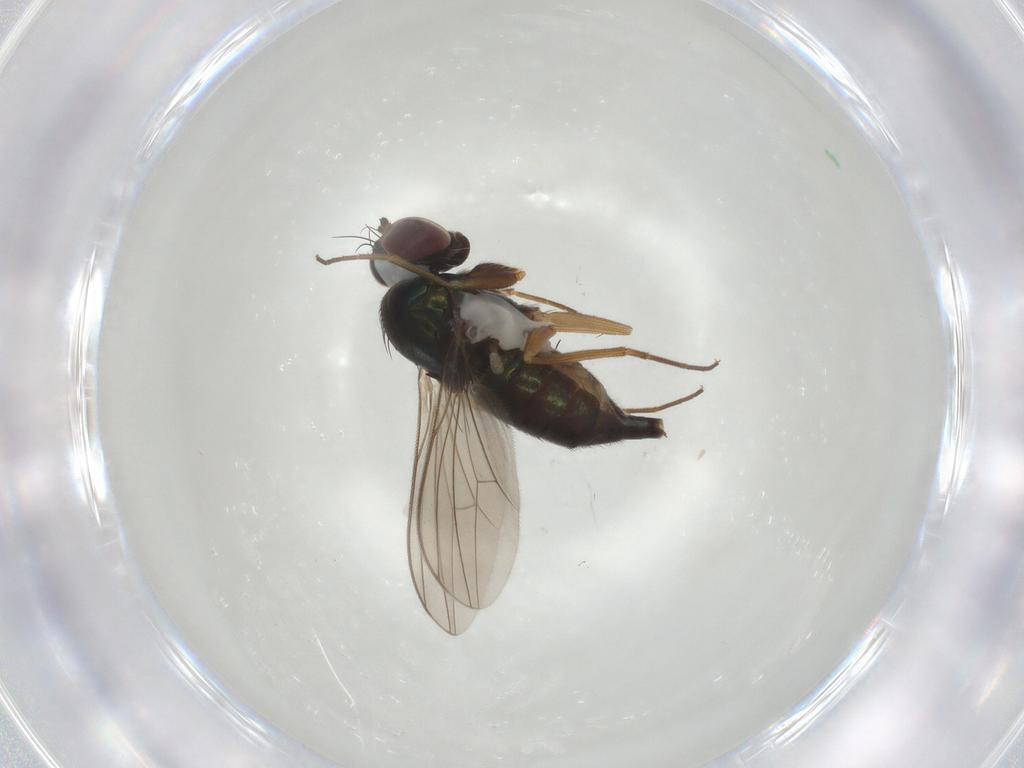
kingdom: Animalia
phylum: Arthropoda
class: Insecta
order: Diptera
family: Dolichopodidae
